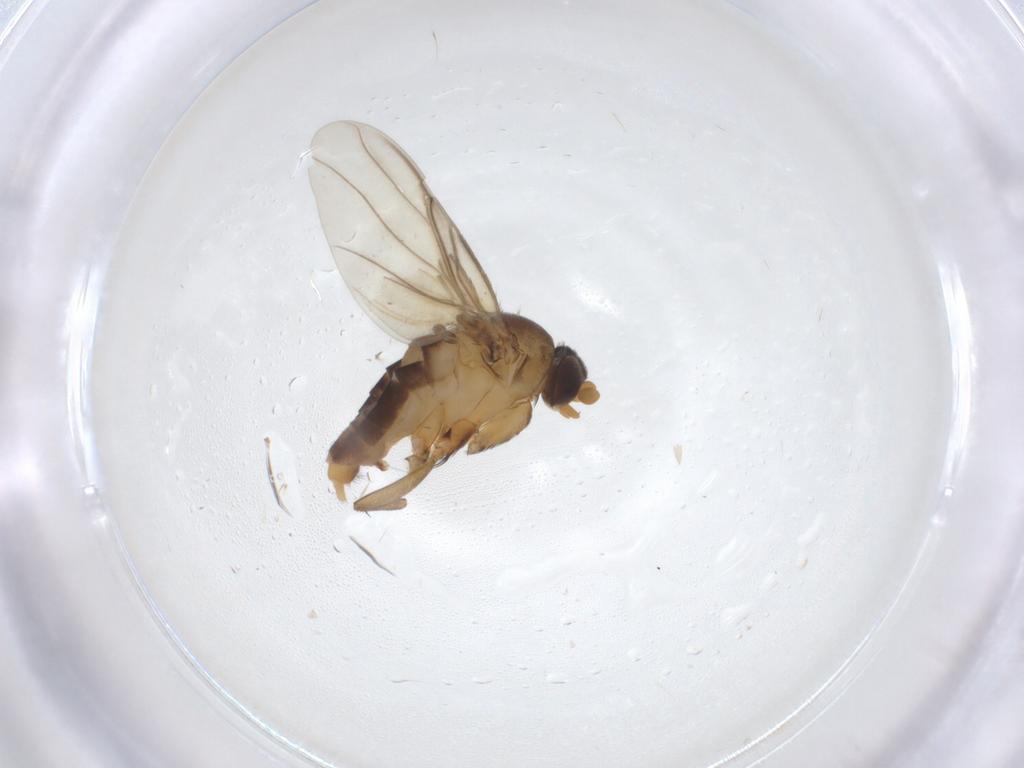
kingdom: Animalia
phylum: Arthropoda
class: Insecta
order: Diptera
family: Phoridae
